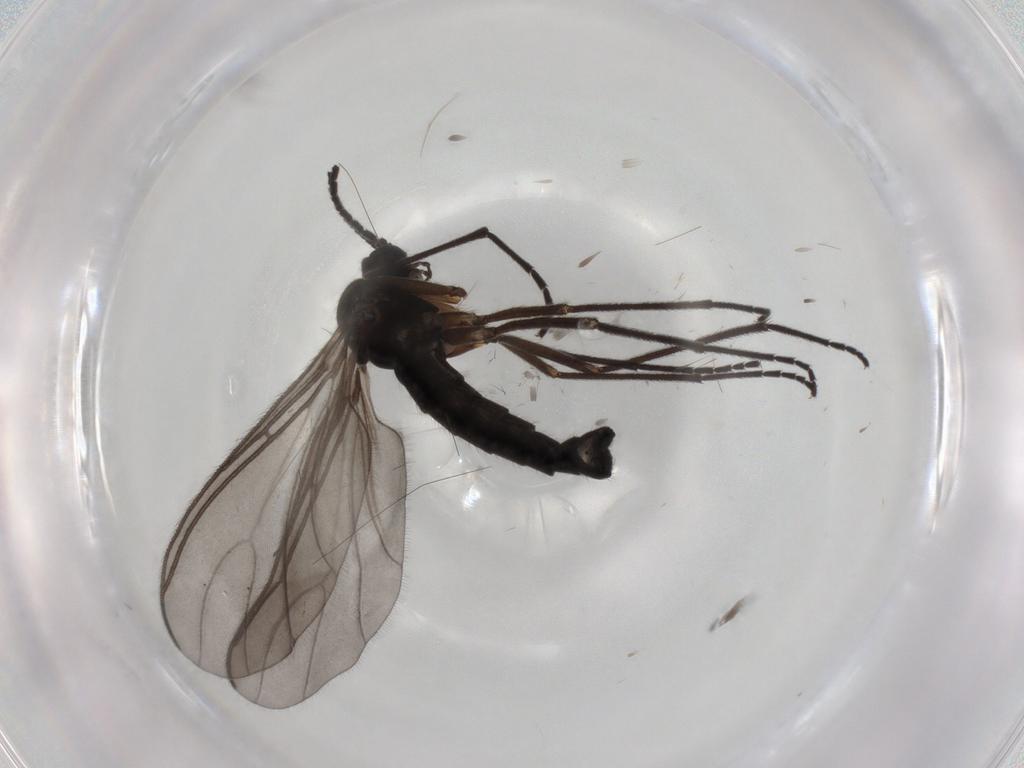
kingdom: Animalia
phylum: Arthropoda
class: Insecta
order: Diptera
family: Sciaridae
